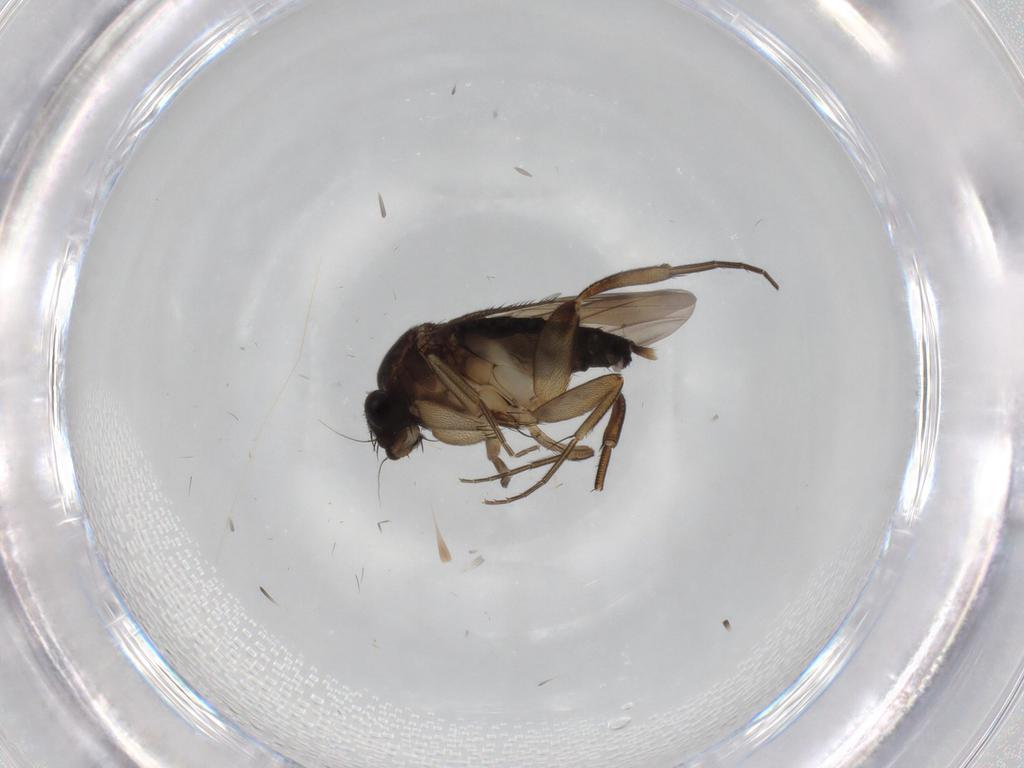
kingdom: Animalia
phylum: Arthropoda
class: Insecta
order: Diptera
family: Phoridae
